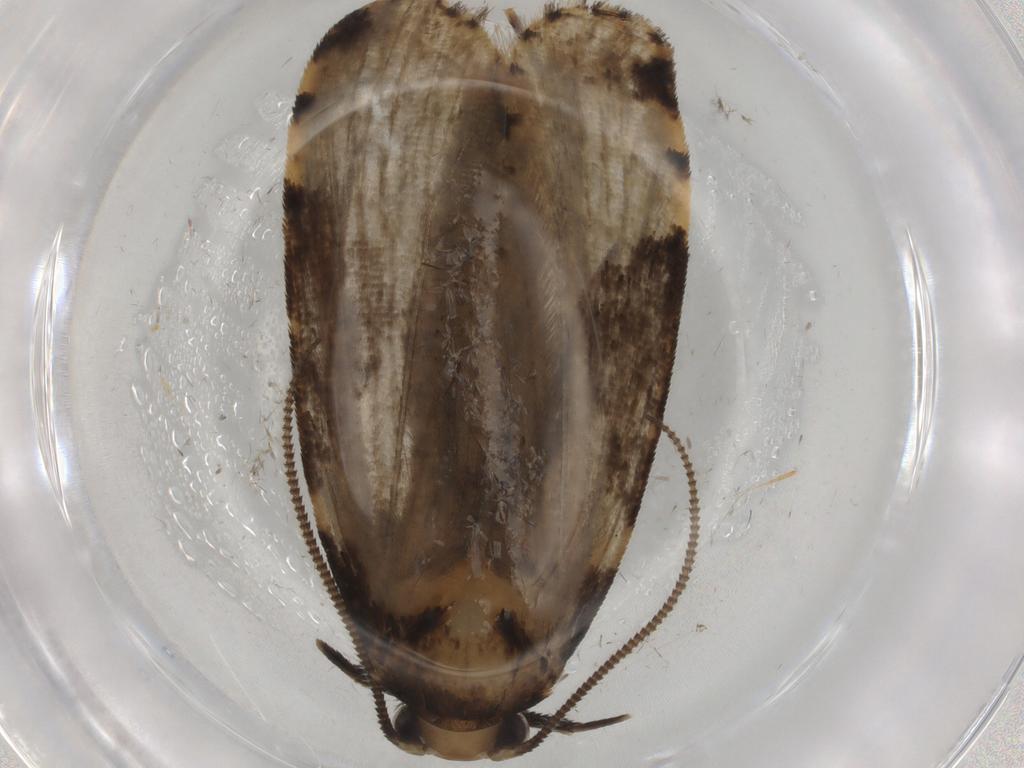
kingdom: Animalia
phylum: Arthropoda
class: Insecta
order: Lepidoptera
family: Tineidae
